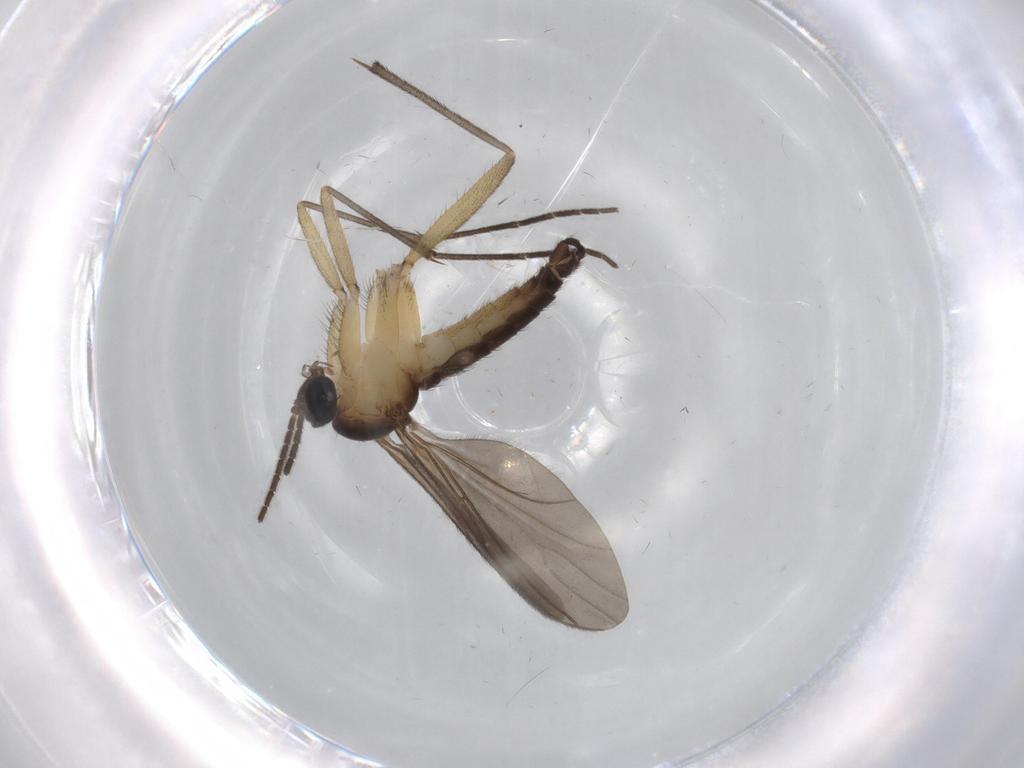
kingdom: Animalia
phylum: Arthropoda
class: Insecta
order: Diptera
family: Sciaridae
